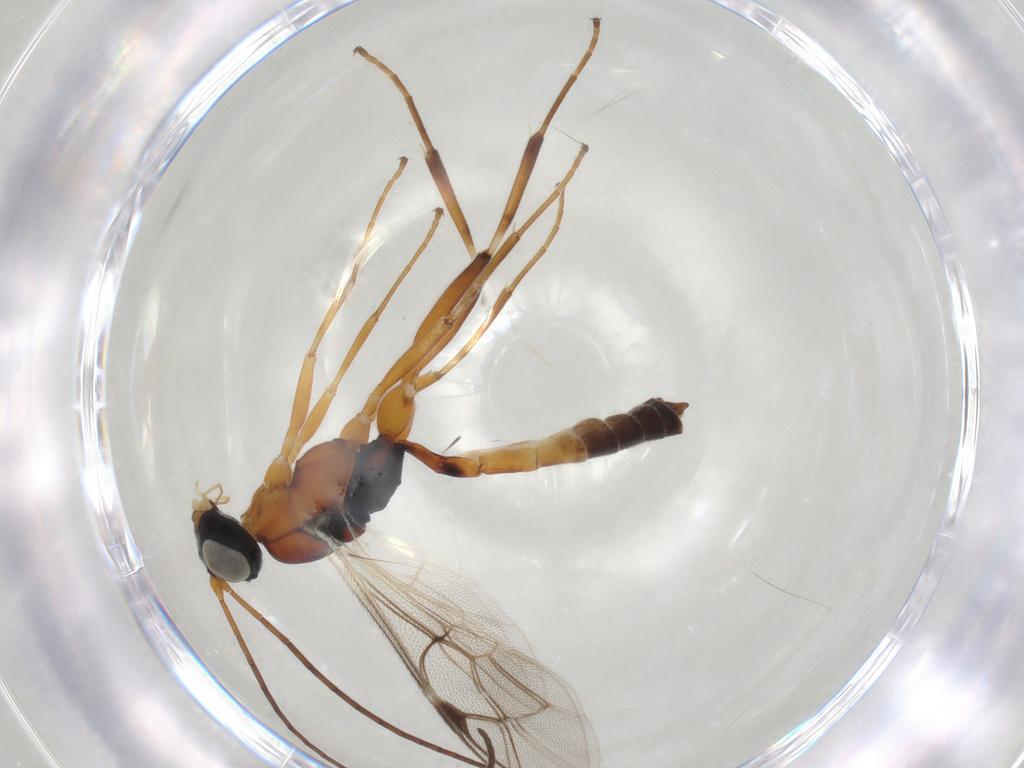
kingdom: Animalia
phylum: Arthropoda
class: Insecta
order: Hymenoptera
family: Ichneumonidae
